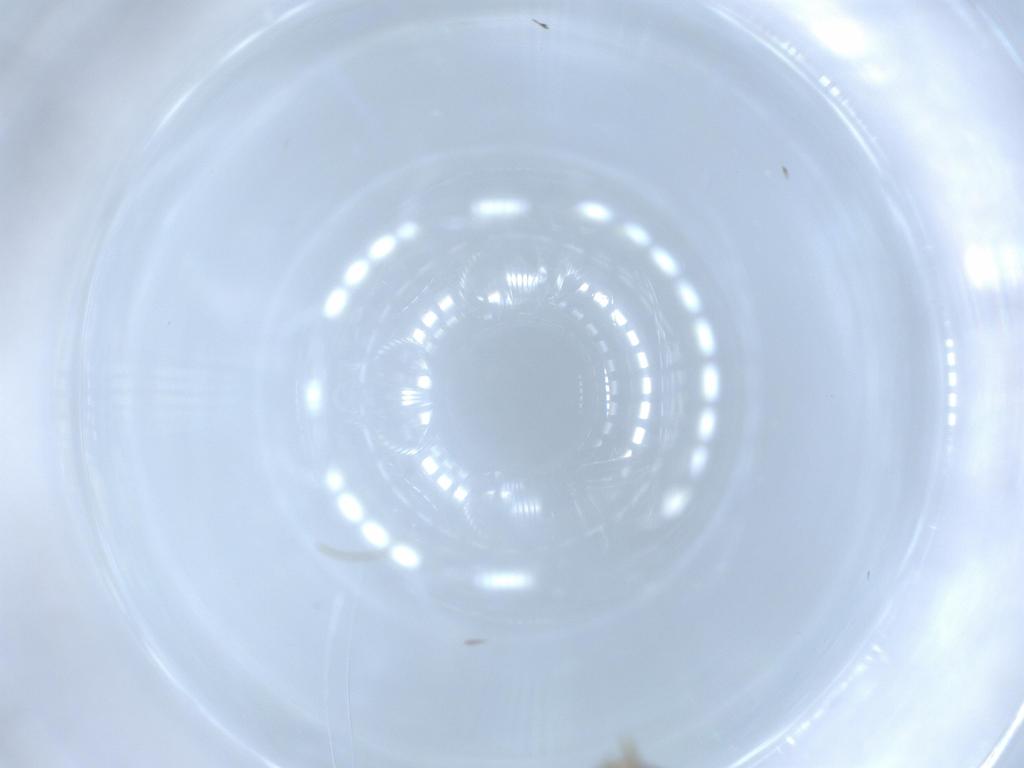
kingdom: Animalia
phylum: Arthropoda
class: Insecta
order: Diptera
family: Ceratopogonidae
